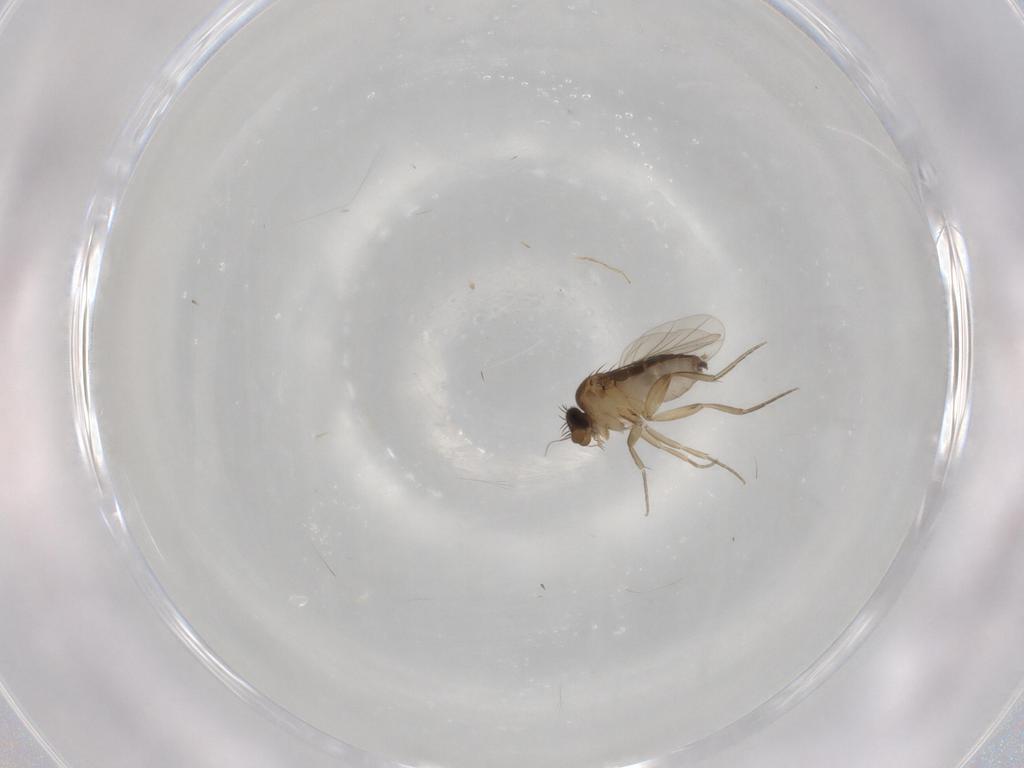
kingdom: Animalia
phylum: Arthropoda
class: Insecta
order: Diptera
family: Phoridae
